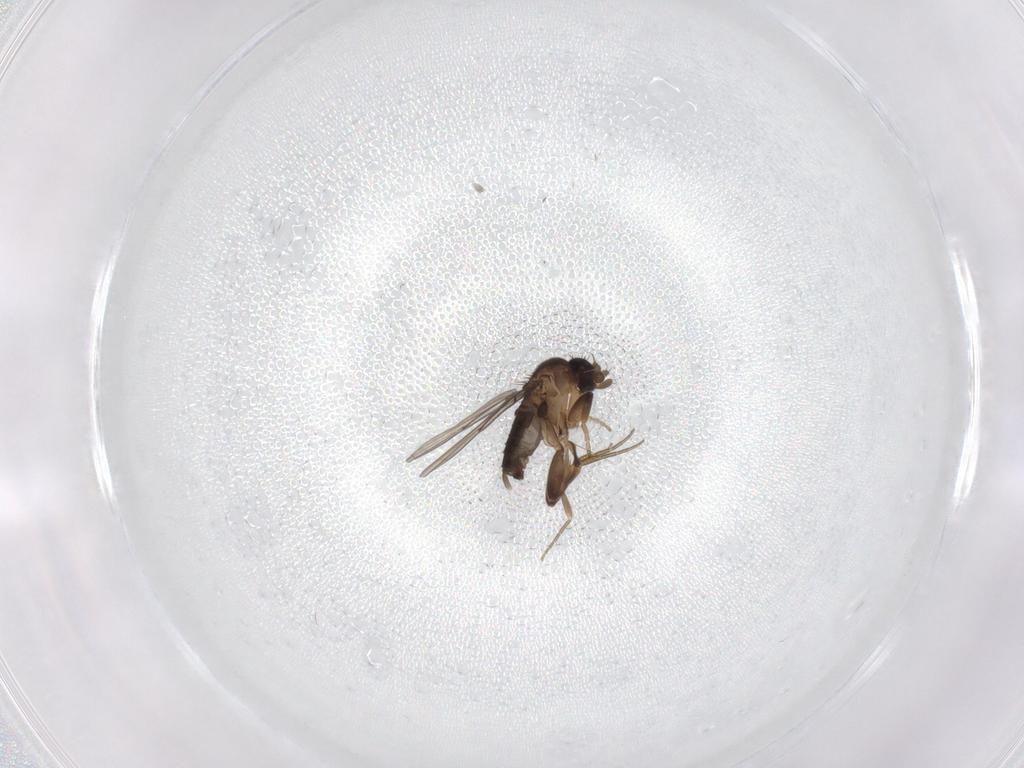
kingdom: Animalia
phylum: Arthropoda
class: Insecta
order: Diptera
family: Phoridae
